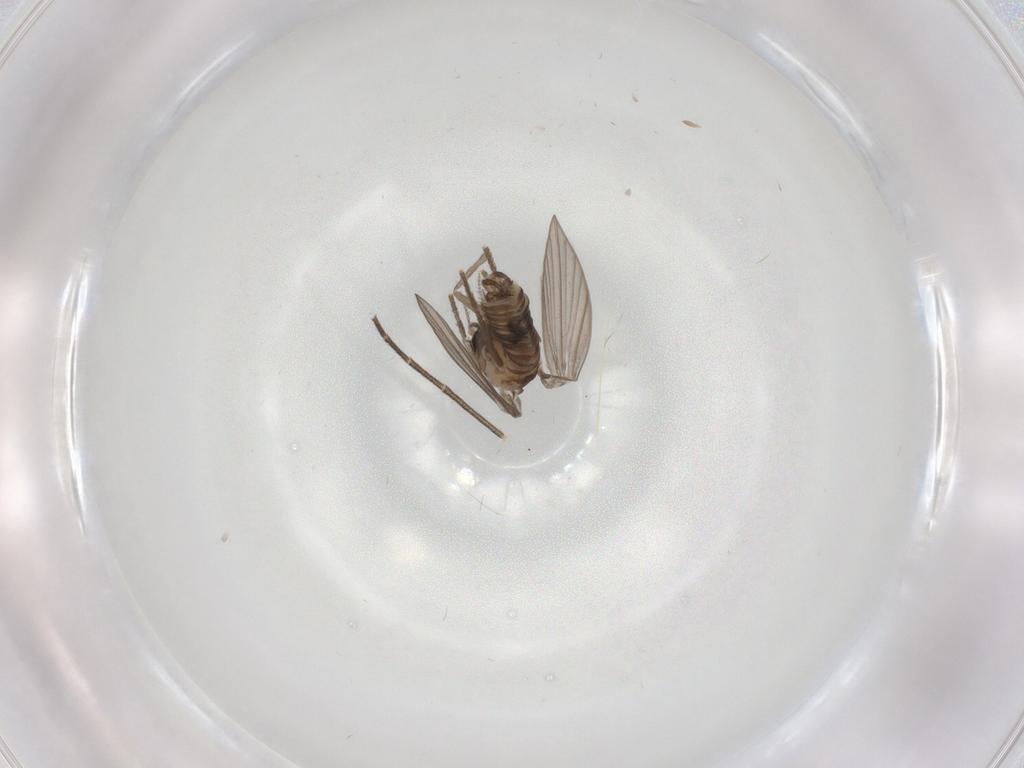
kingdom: Animalia
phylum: Arthropoda
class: Insecta
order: Diptera
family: Psychodidae
